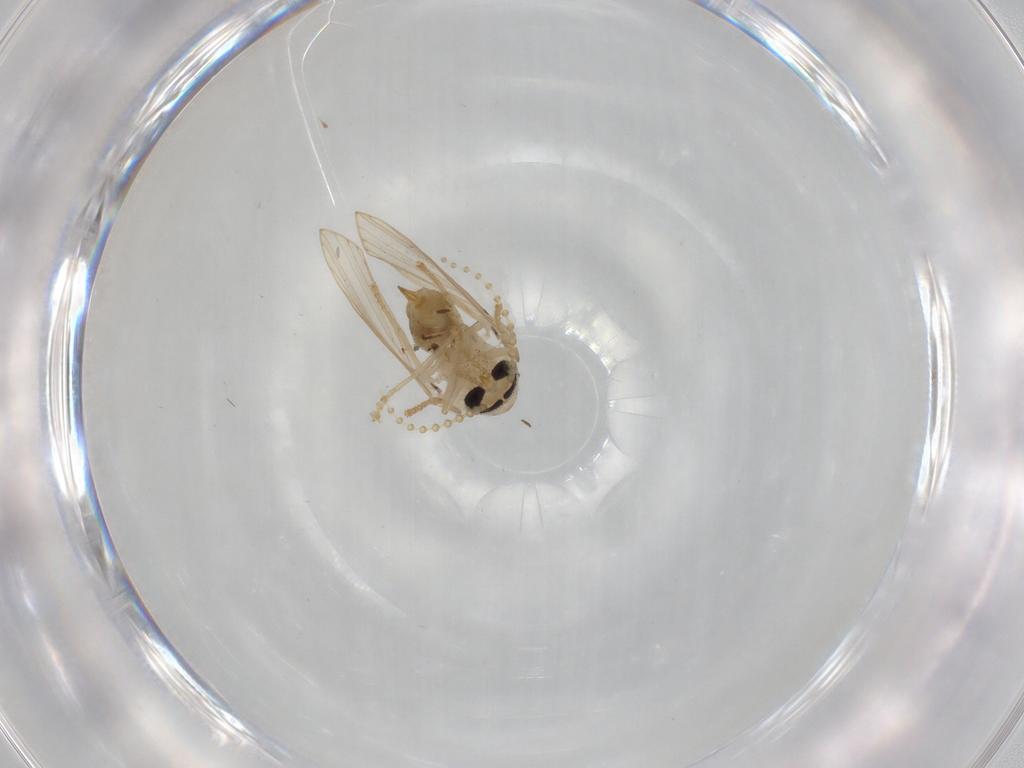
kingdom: Animalia
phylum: Arthropoda
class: Insecta
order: Diptera
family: Psychodidae
